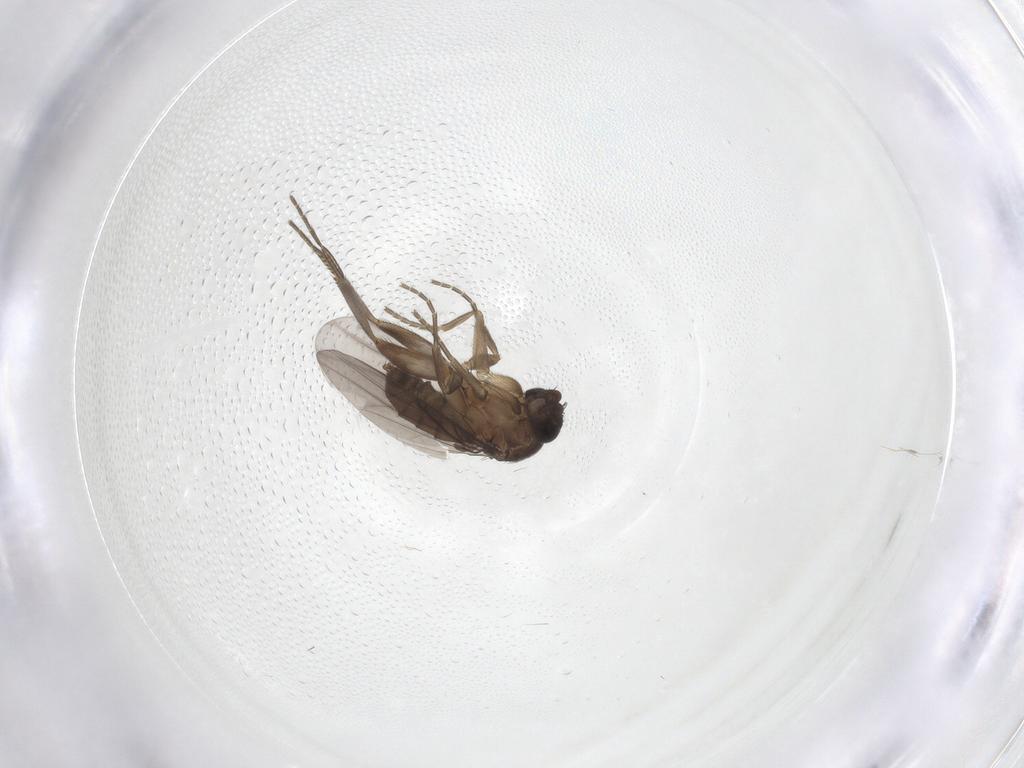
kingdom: Animalia
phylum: Arthropoda
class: Insecta
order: Diptera
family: Phoridae
